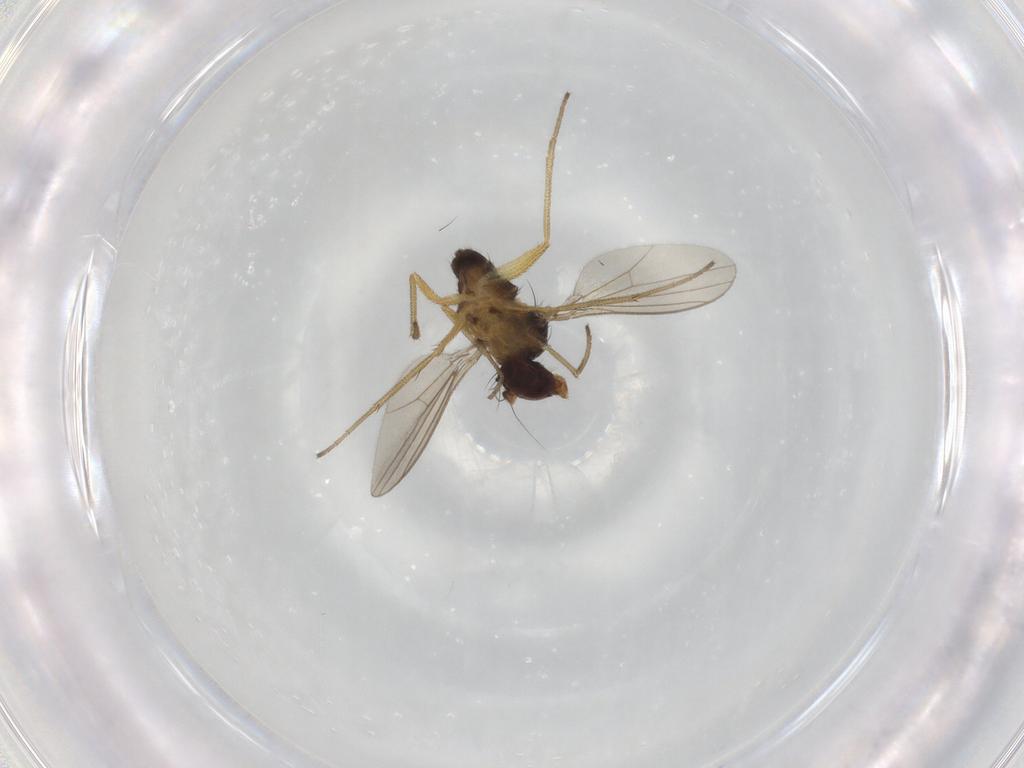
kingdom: Animalia
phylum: Arthropoda
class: Insecta
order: Diptera
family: Dolichopodidae
